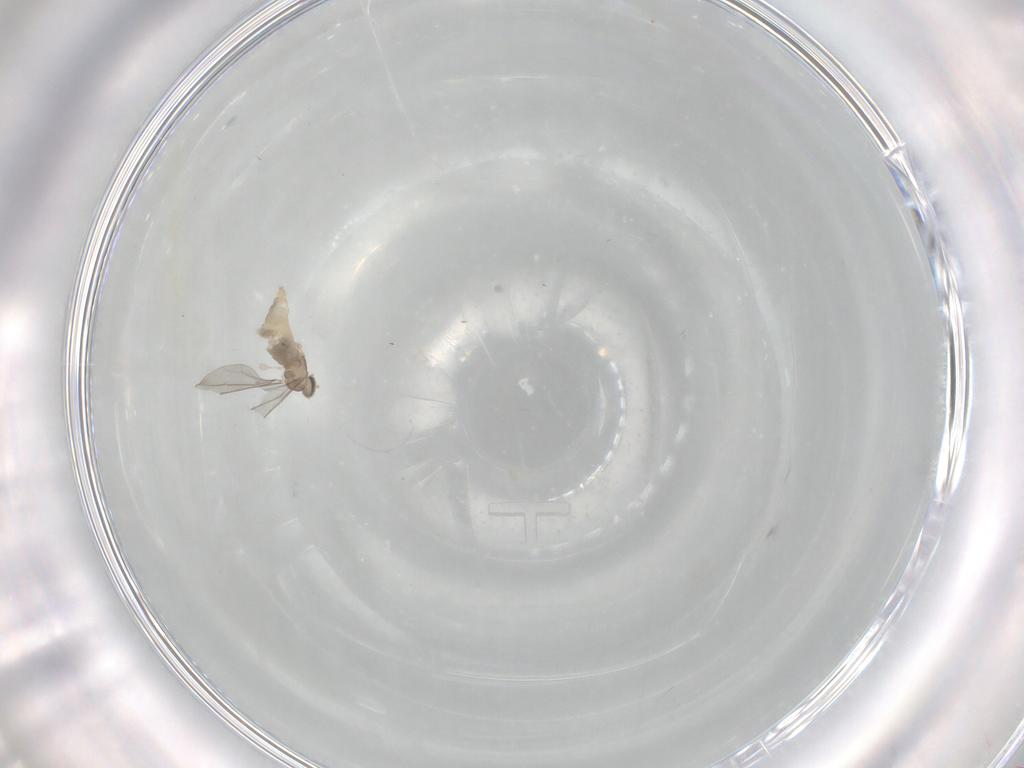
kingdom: Animalia
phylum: Arthropoda
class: Insecta
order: Diptera
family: Cecidomyiidae
